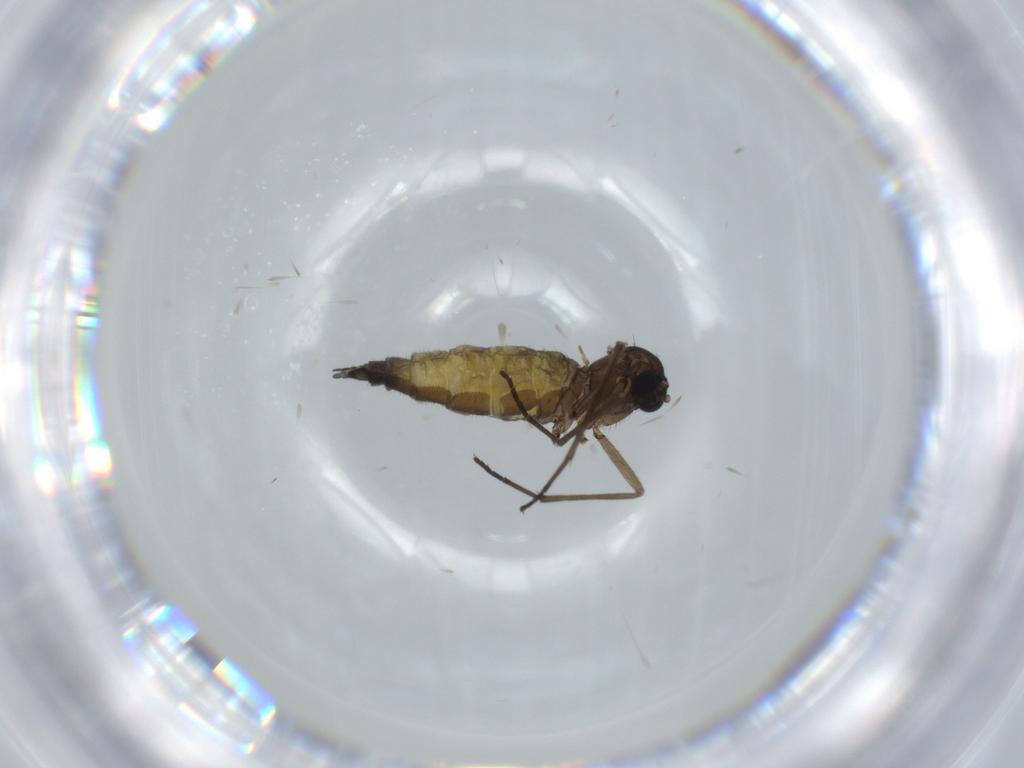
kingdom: Animalia
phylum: Arthropoda
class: Insecta
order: Diptera
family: Sciaridae
